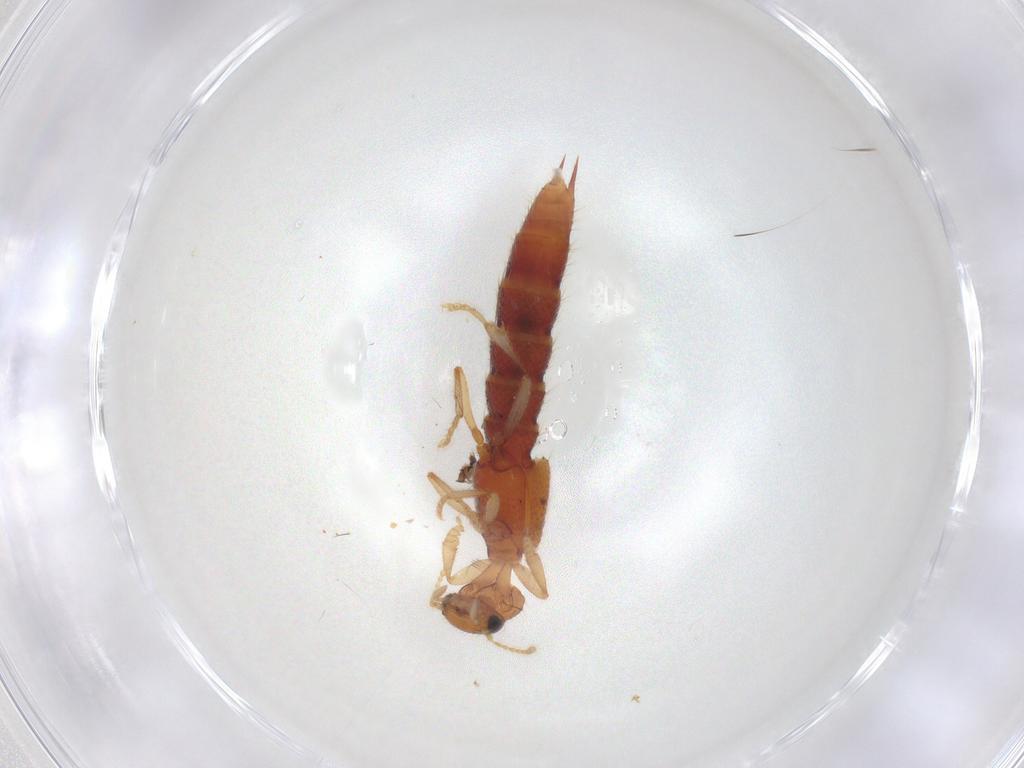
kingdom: Animalia
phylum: Arthropoda
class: Insecta
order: Coleoptera
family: Staphylinidae
